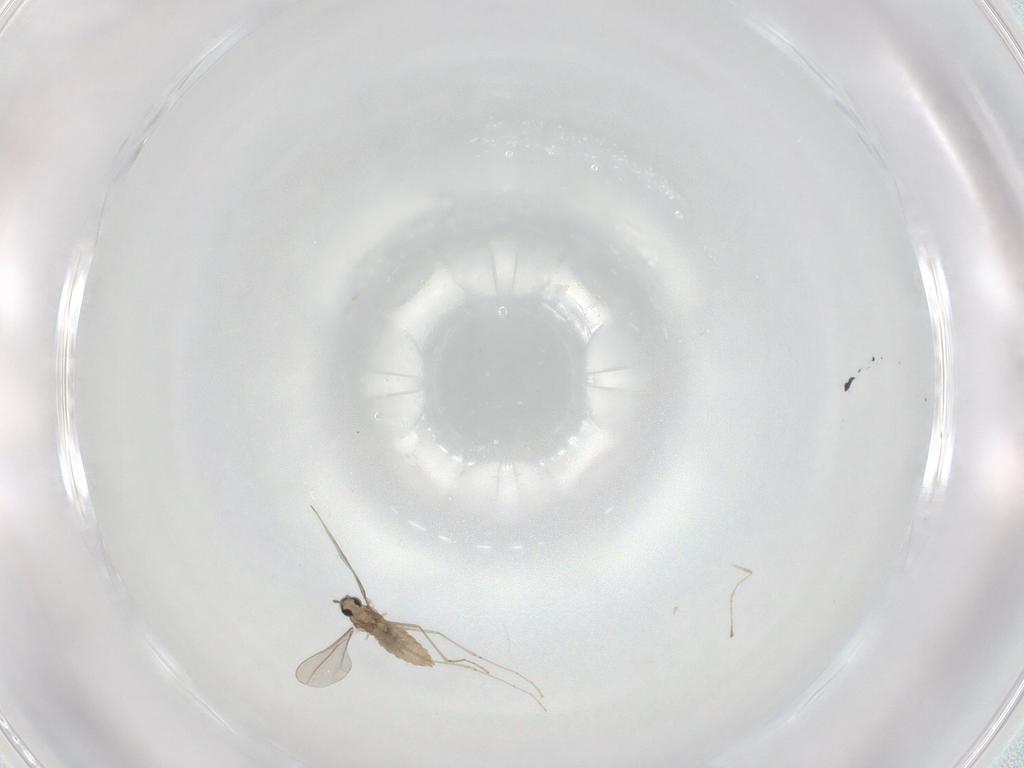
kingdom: Animalia
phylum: Arthropoda
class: Insecta
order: Diptera
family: Cecidomyiidae
